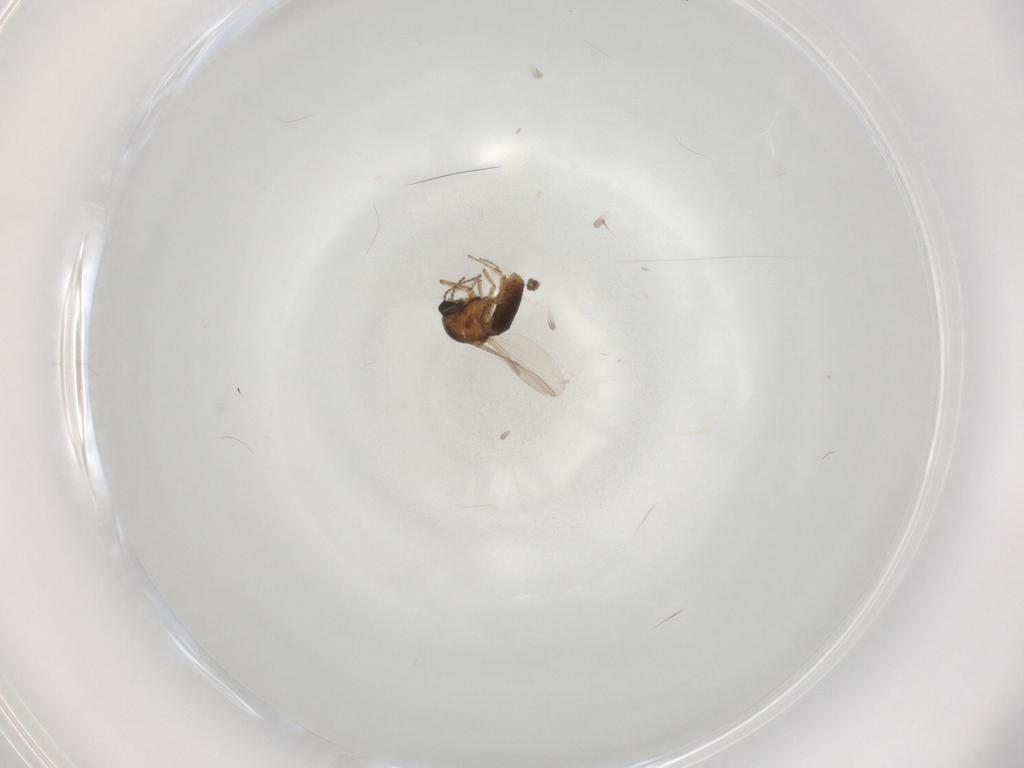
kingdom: Animalia
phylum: Arthropoda
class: Insecta
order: Diptera
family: Ceratopogonidae
